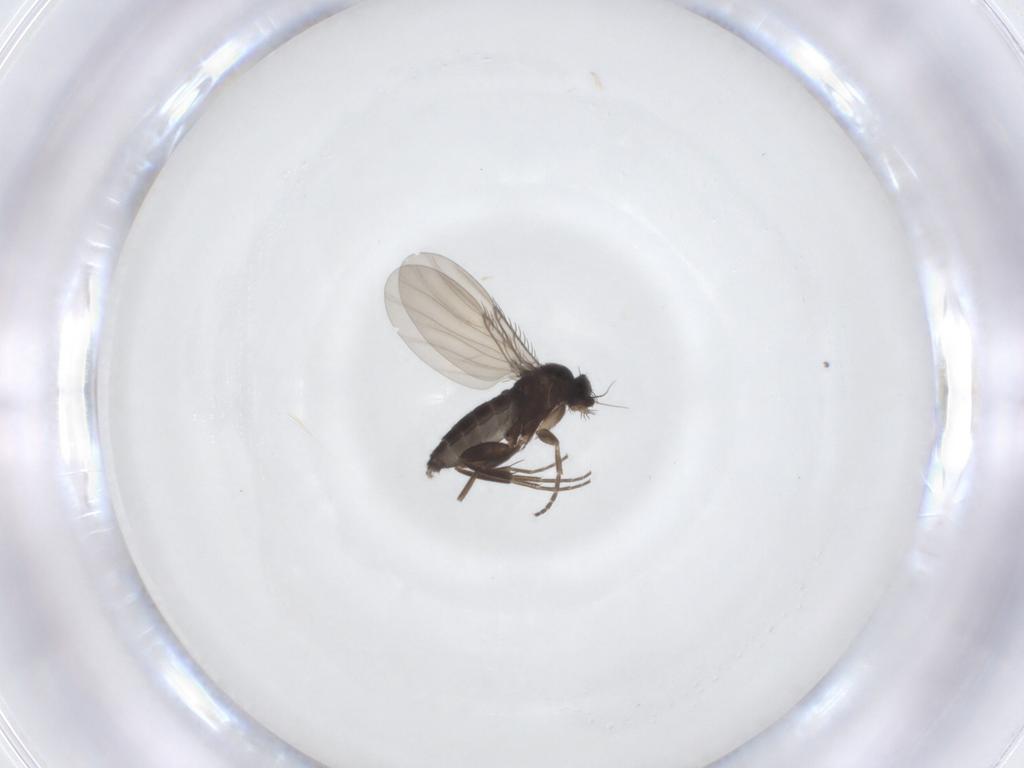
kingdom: Animalia
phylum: Arthropoda
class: Insecta
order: Diptera
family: Phoridae
